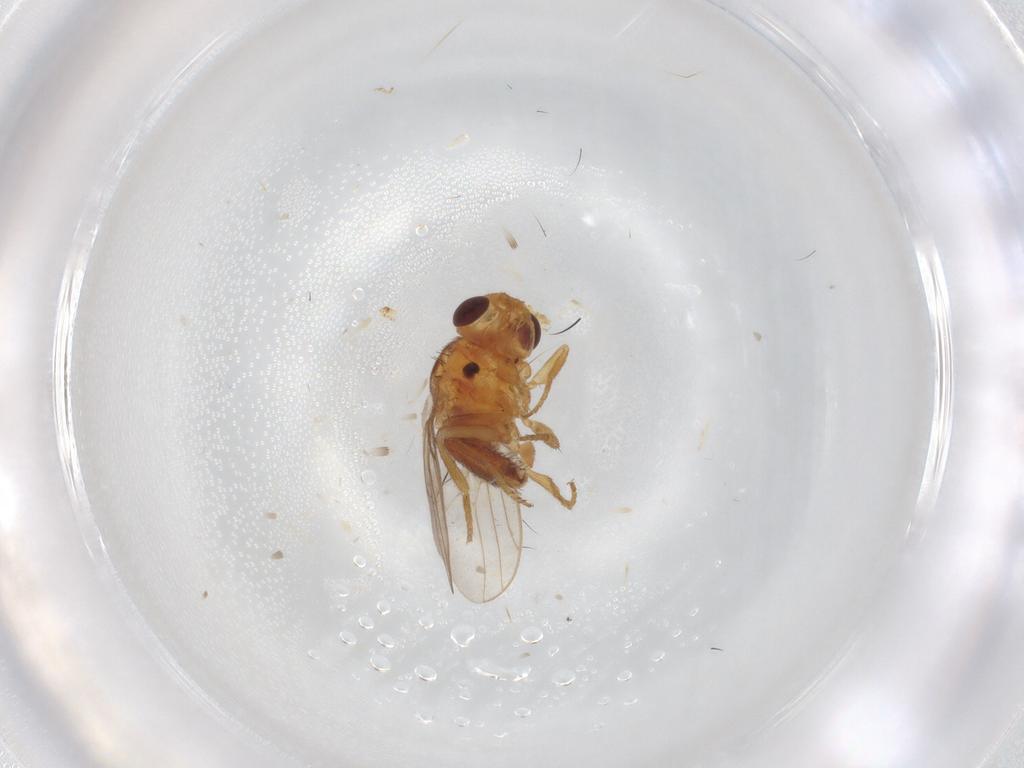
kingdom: Animalia
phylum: Arthropoda
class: Insecta
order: Diptera
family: Chloropidae
